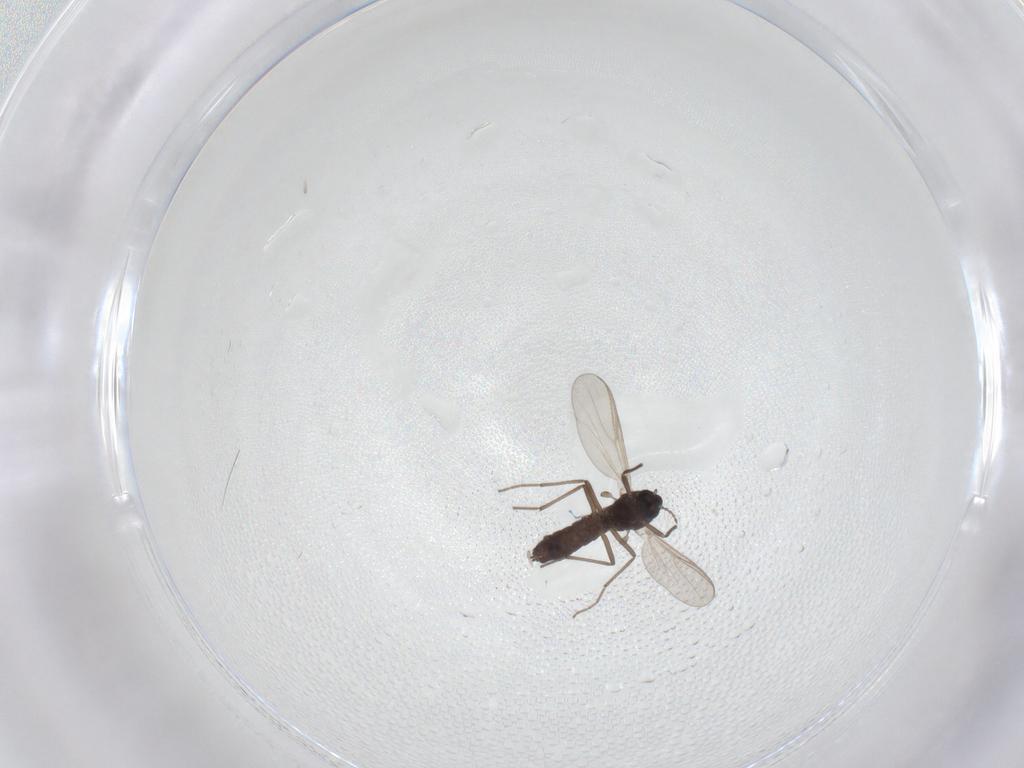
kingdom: Animalia
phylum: Arthropoda
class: Insecta
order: Diptera
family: Chironomidae
